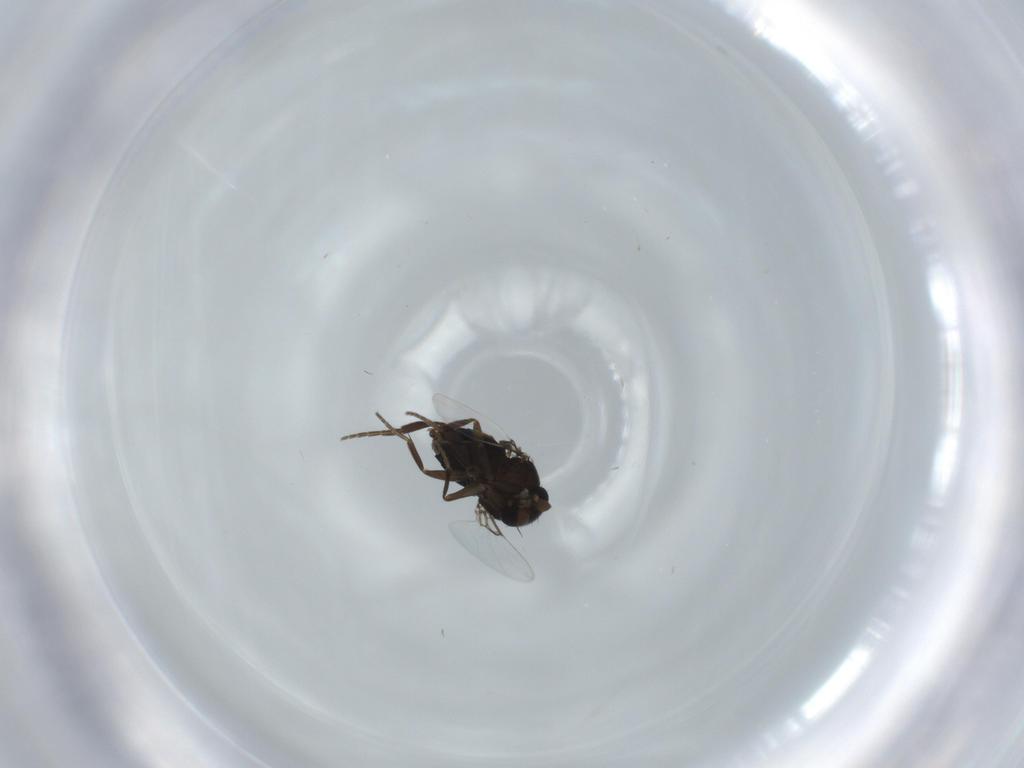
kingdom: Animalia
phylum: Arthropoda
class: Insecta
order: Diptera
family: Phoridae
